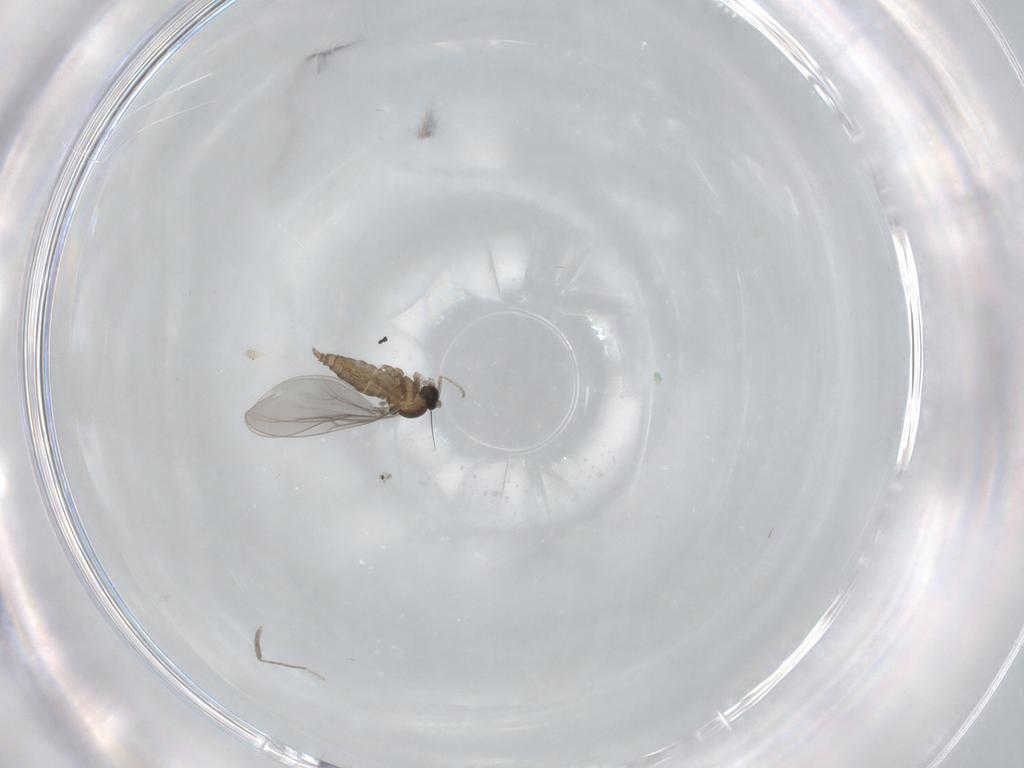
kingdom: Animalia
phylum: Arthropoda
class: Insecta
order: Diptera
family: Cecidomyiidae
